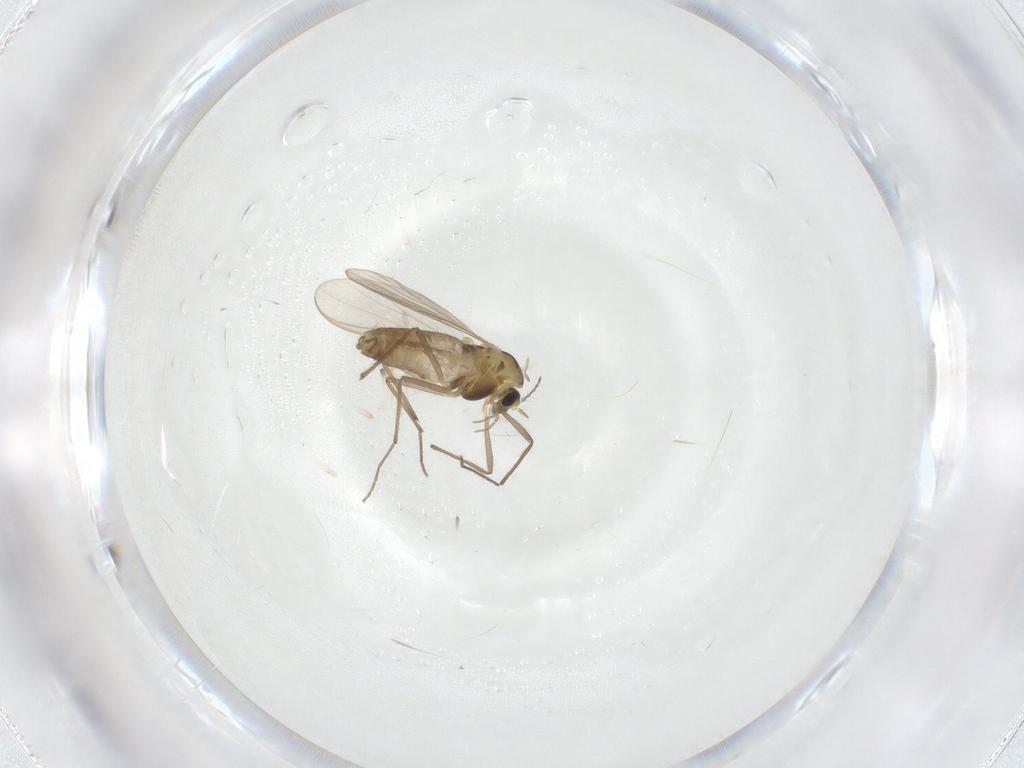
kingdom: Animalia
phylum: Arthropoda
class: Insecta
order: Diptera
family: Chironomidae
